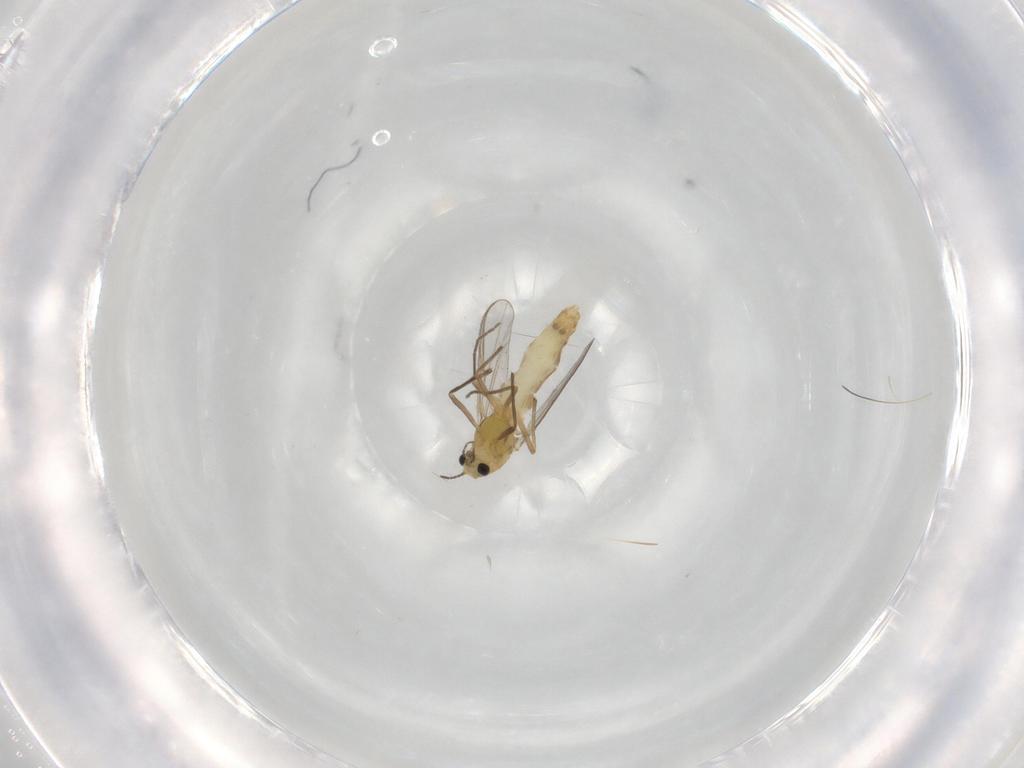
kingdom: Animalia
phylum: Arthropoda
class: Insecta
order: Diptera
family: Chironomidae
